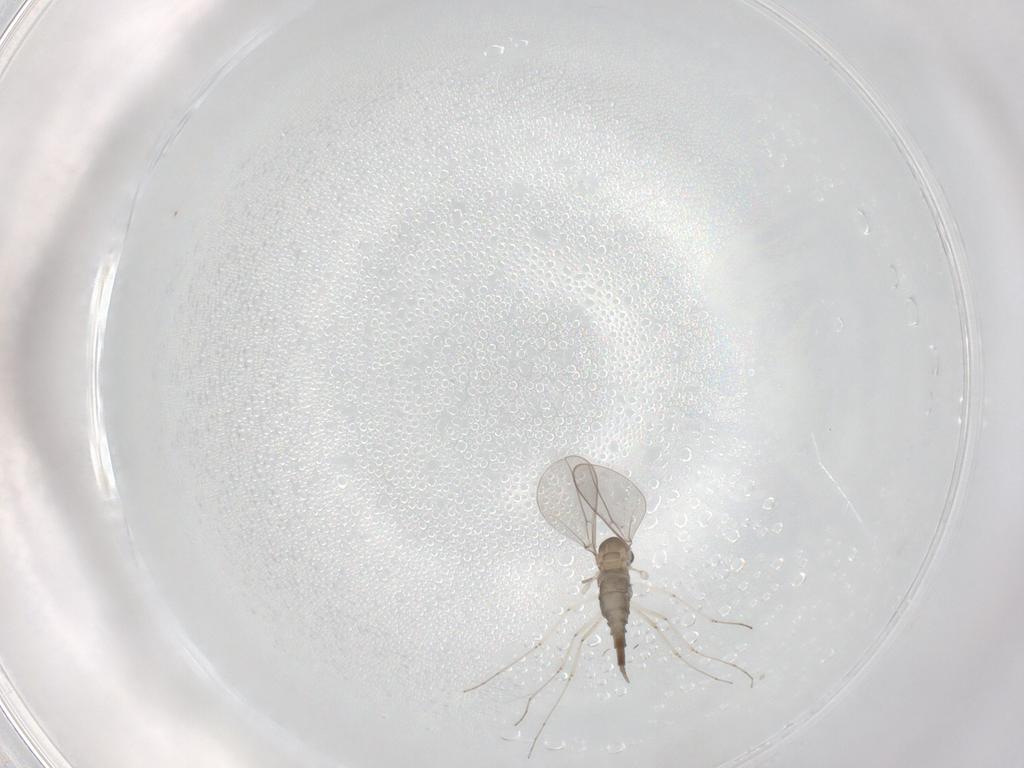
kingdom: Animalia
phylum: Arthropoda
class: Insecta
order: Diptera
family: Cecidomyiidae
